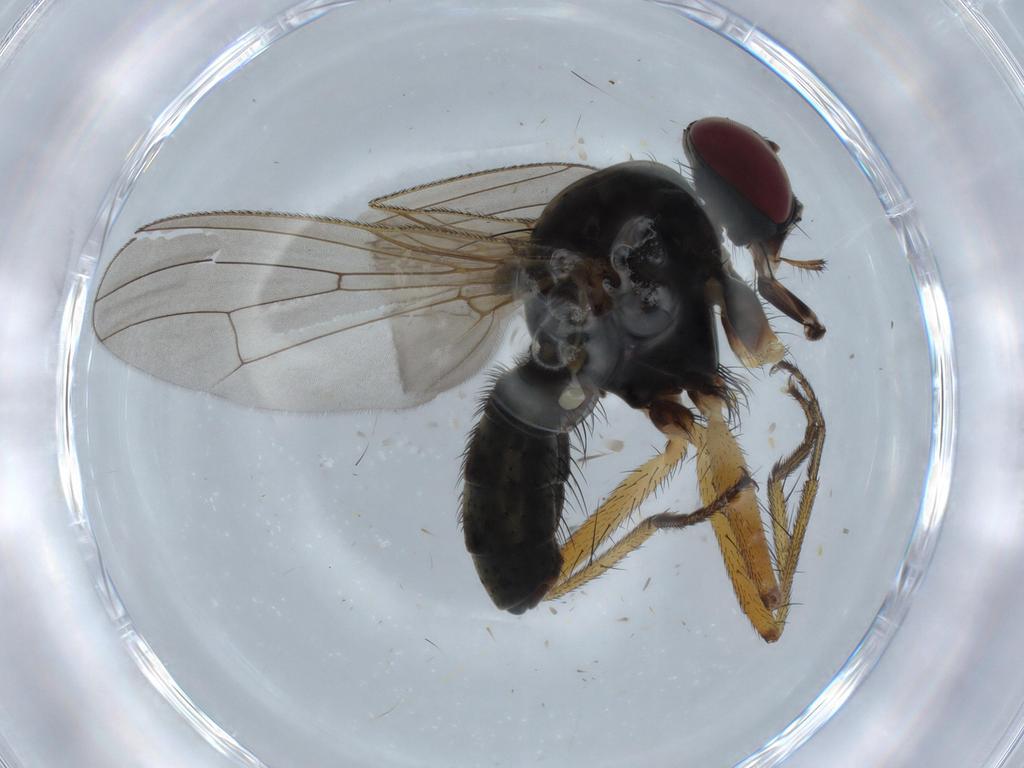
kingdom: Animalia
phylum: Arthropoda
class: Insecta
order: Diptera
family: Muscidae
